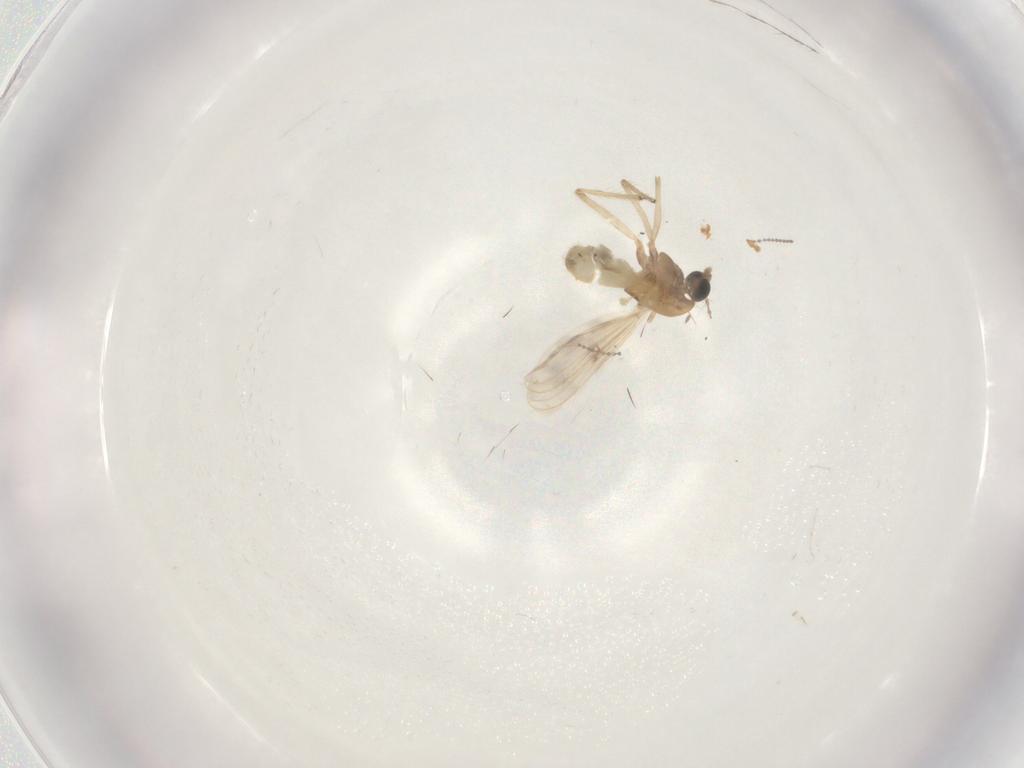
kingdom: Animalia
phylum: Arthropoda
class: Insecta
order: Diptera
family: Chironomidae
